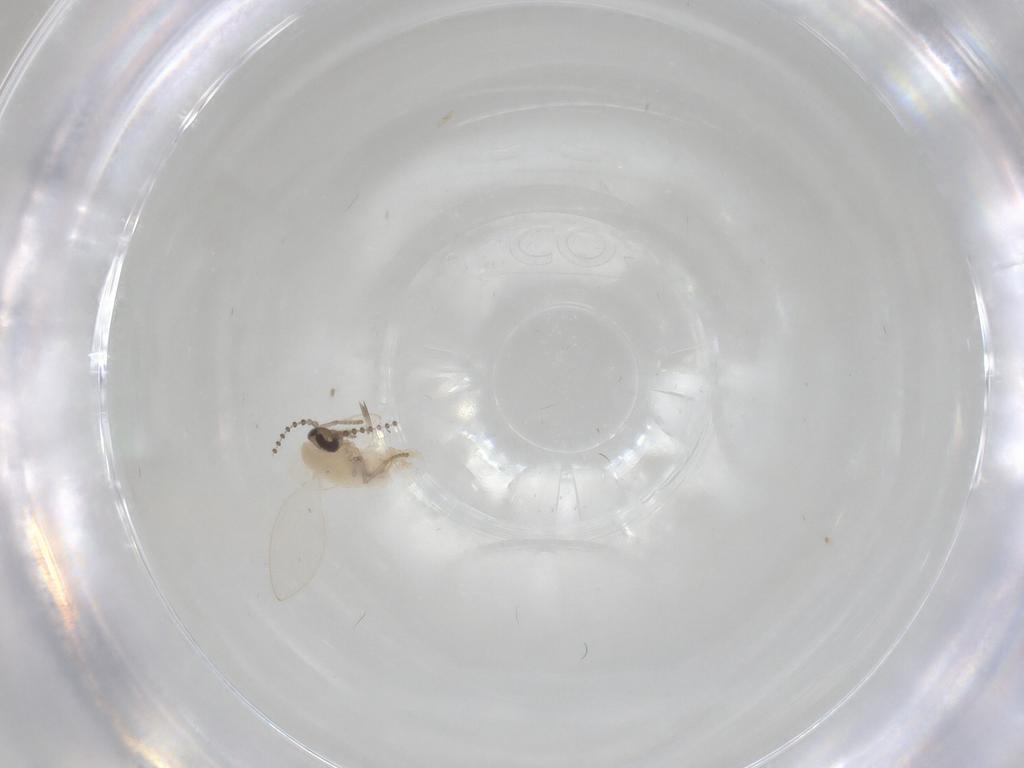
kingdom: Animalia
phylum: Arthropoda
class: Insecta
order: Diptera
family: Psychodidae
